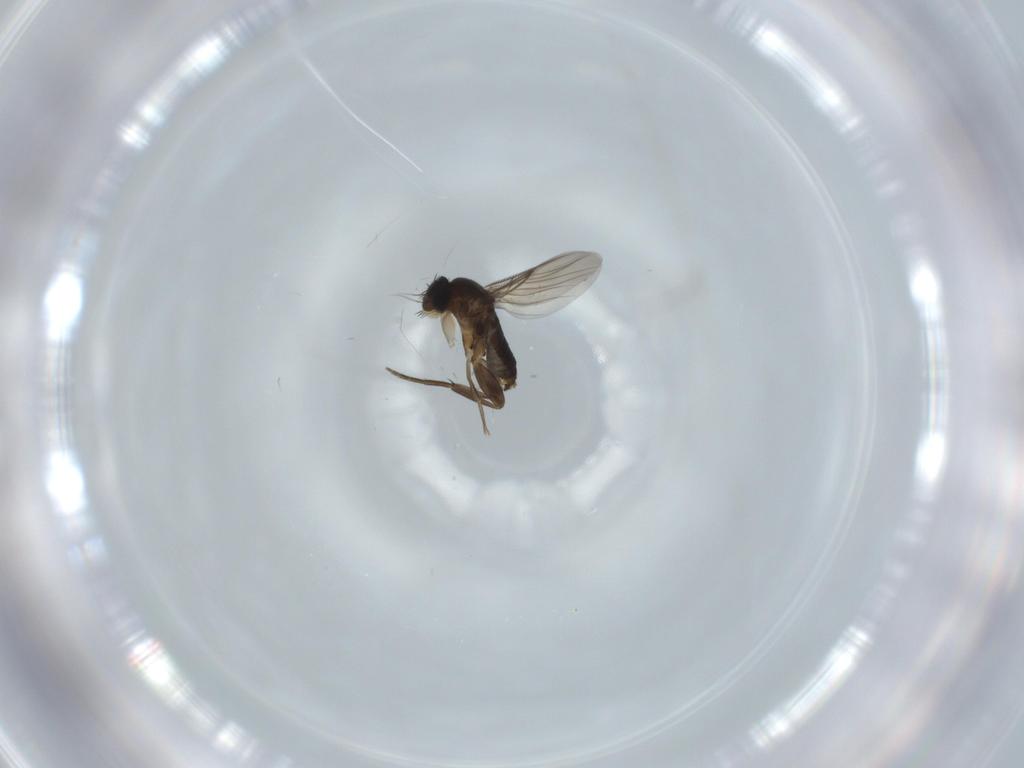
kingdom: Animalia
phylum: Arthropoda
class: Insecta
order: Diptera
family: Phoridae
